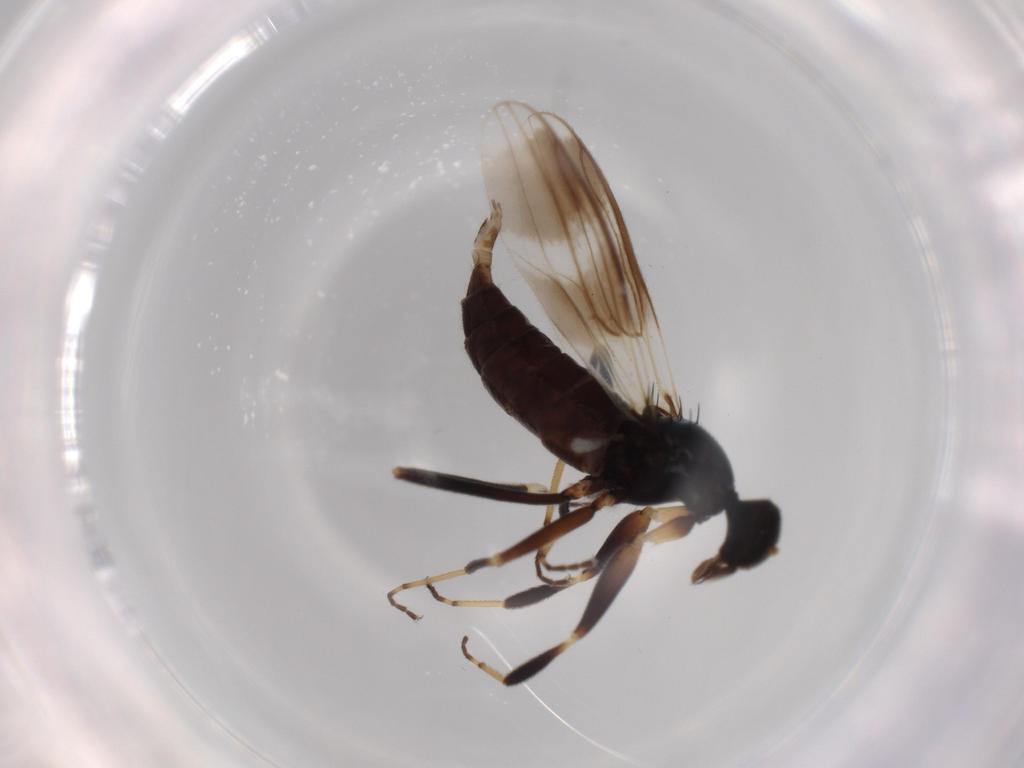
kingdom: Animalia
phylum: Arthropoda
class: Insecta
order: Diptera
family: Hybotidae
